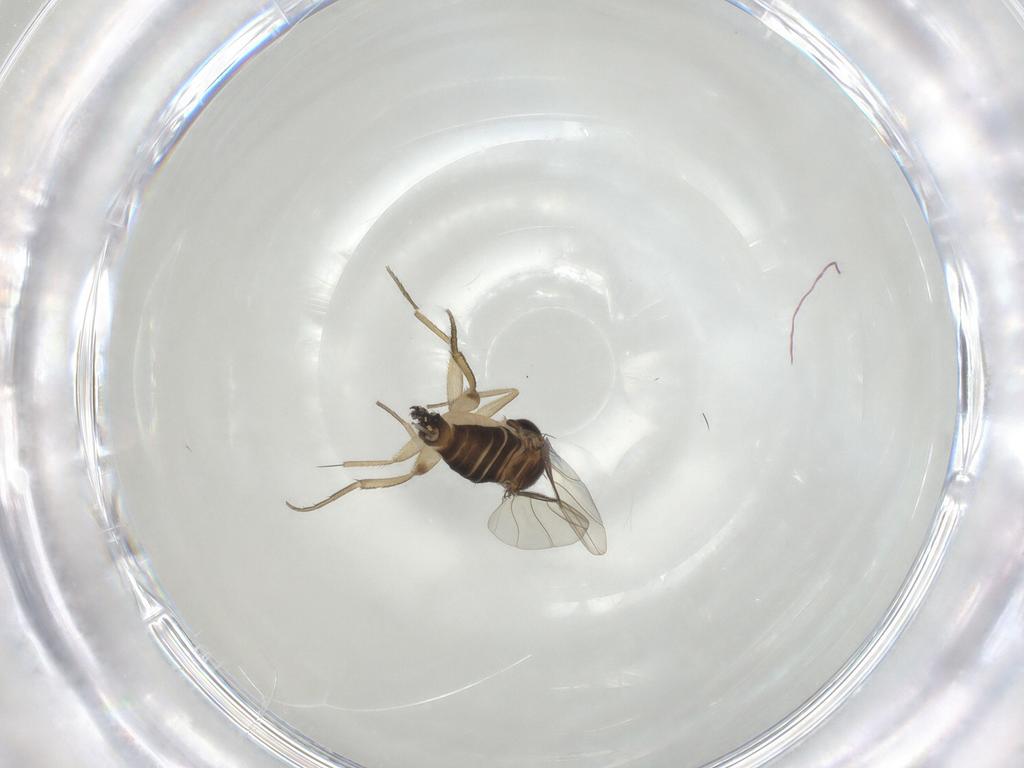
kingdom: Animalia
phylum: Arthropoda
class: Insecta
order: Diptera
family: Phoridae
